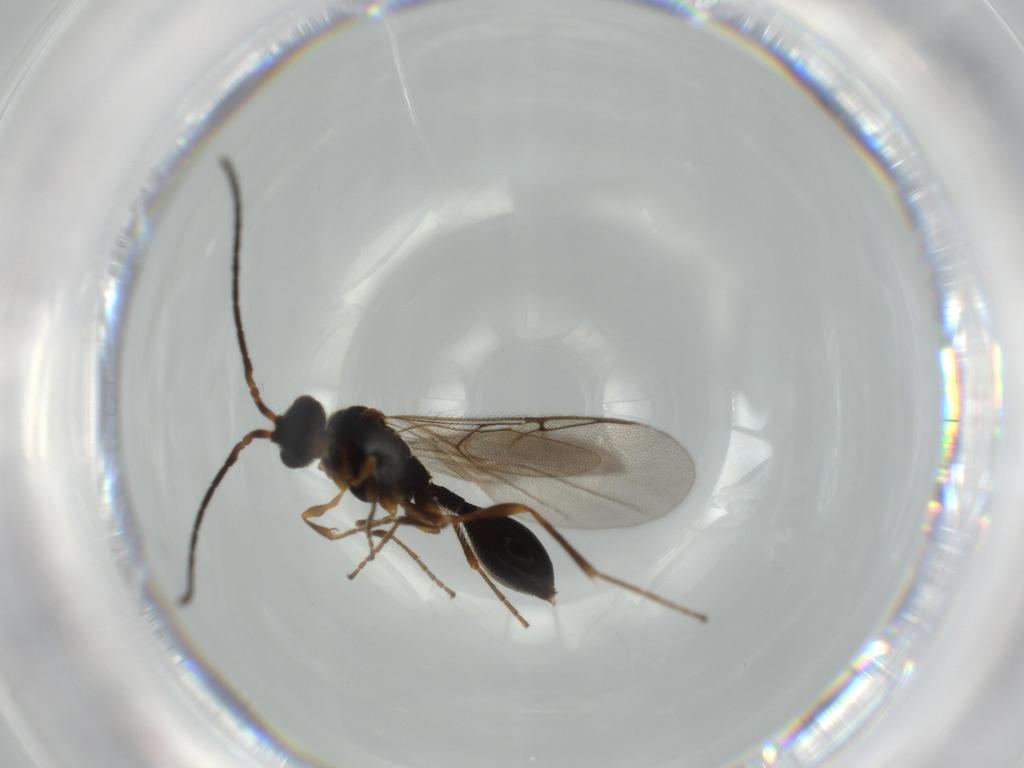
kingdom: Animalia
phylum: Arthropoda
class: Insecta
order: Hymenoptera
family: Diapriidae
